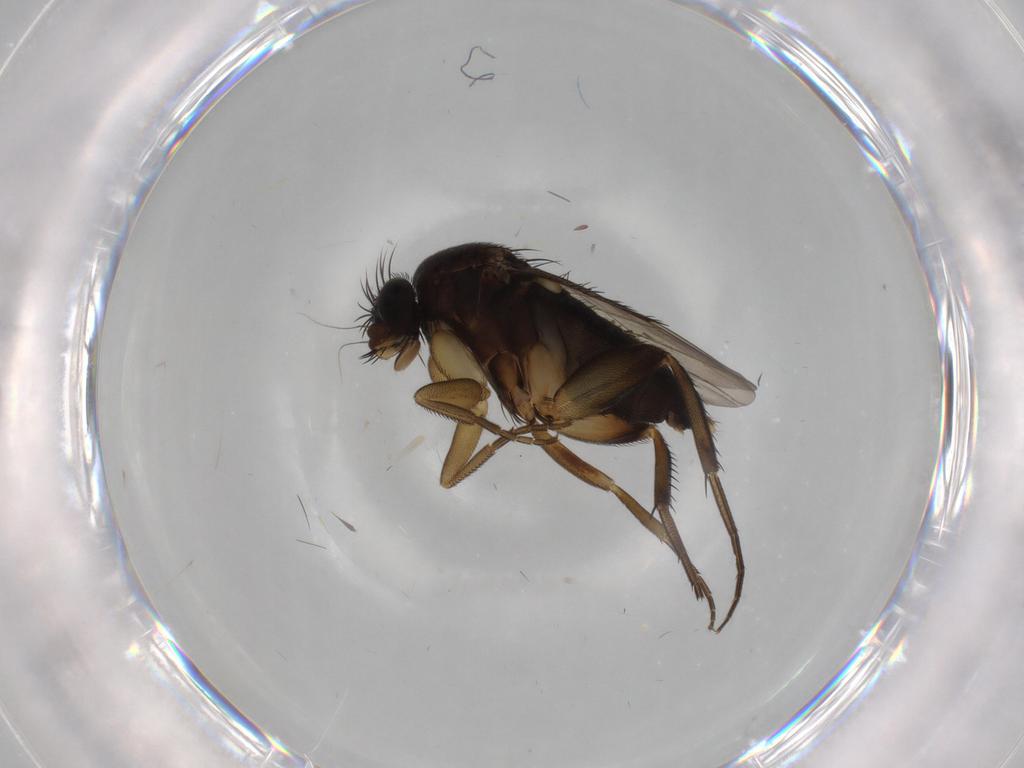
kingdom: Animalia
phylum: Arthropoda
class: Insecta
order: Diptera
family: Phoridae
